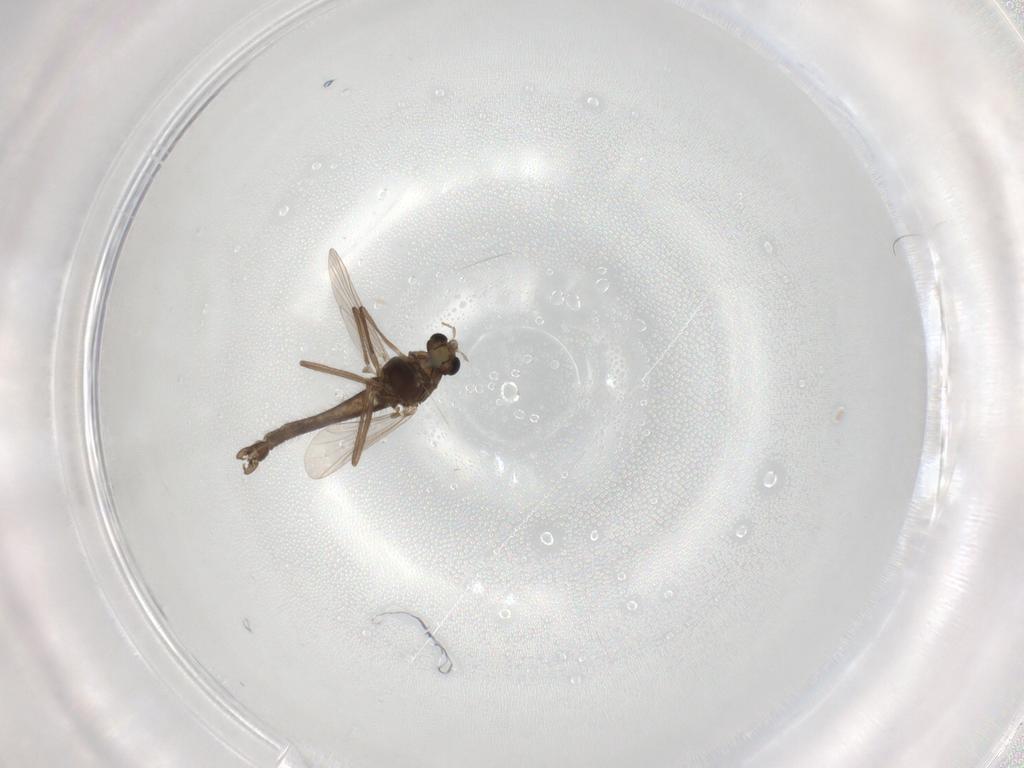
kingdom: Animalia
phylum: Arthropoda
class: Insecta
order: Diptera
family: Chironomidae
